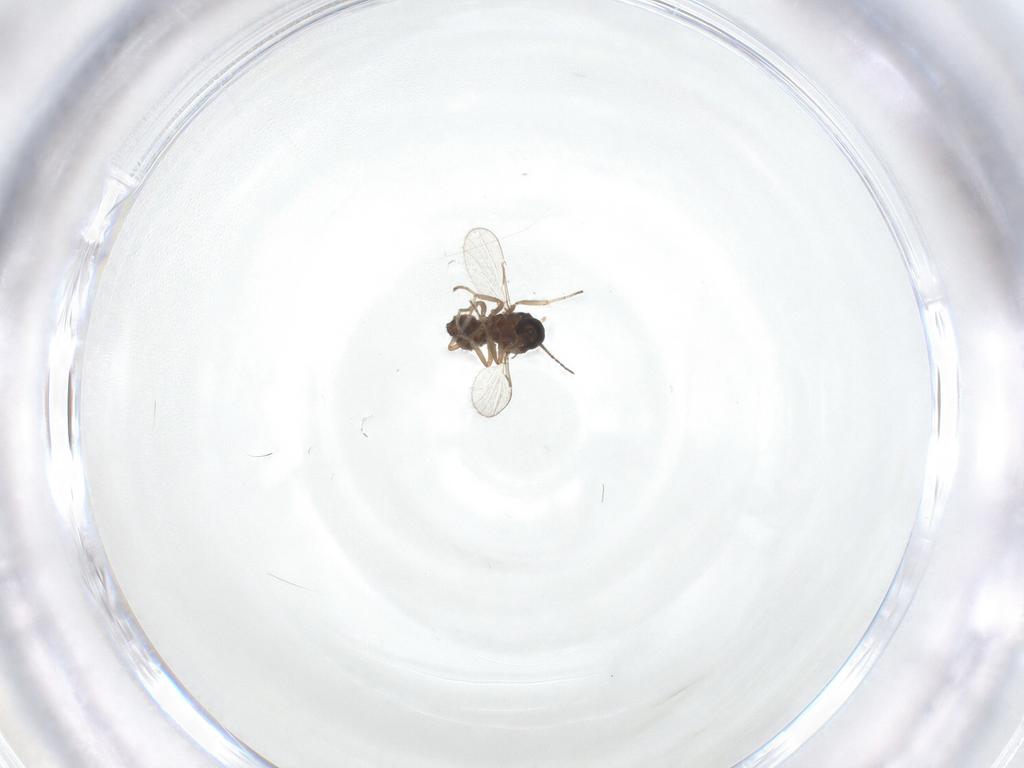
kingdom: Animalia
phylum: Arthropoda
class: Insecta
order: Diptera
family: Ceratopogonidae
